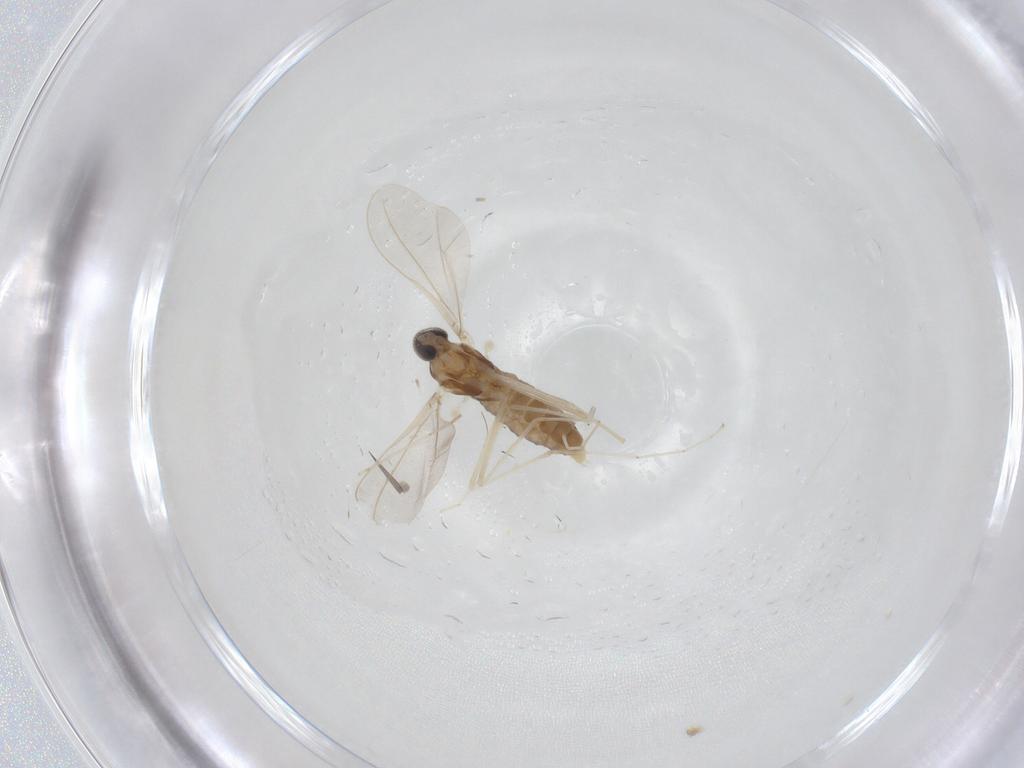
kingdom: Animalia
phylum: Arthropoda
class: Insecta
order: Diptera
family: Cecidomyiidae
